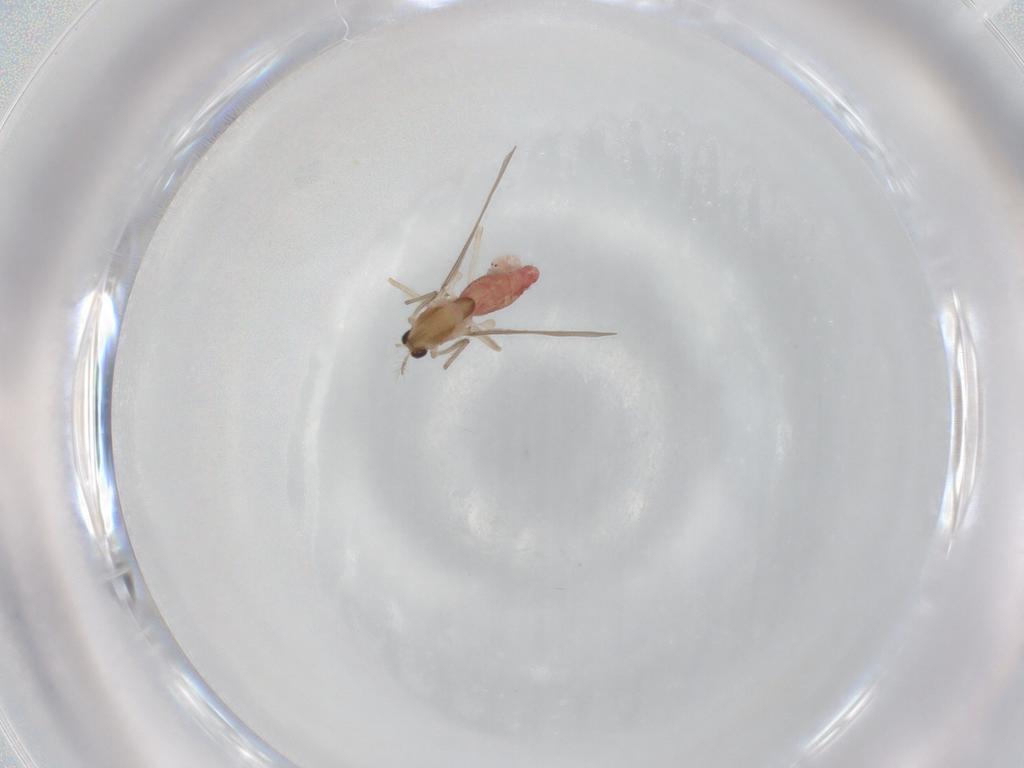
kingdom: Animalia
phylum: Arthropoda
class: Insecta
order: Diptera
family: Chironomidae
